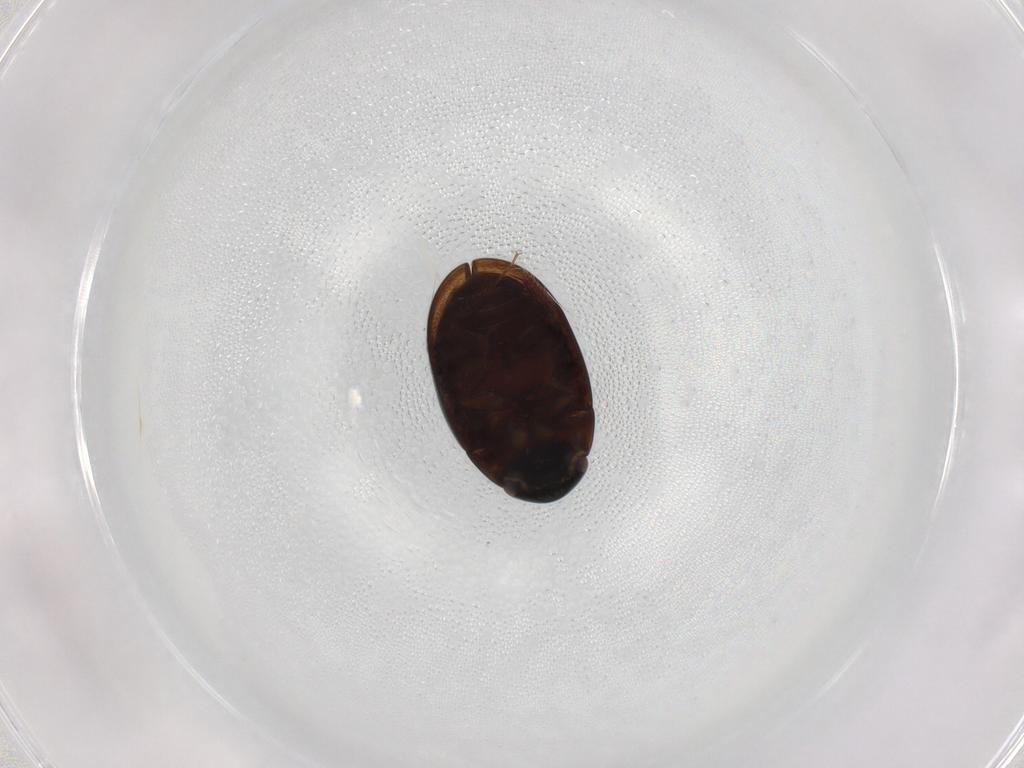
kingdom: Animalia
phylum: Arthropoda
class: Insecta
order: Coleoptera
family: Hydrophilidae
